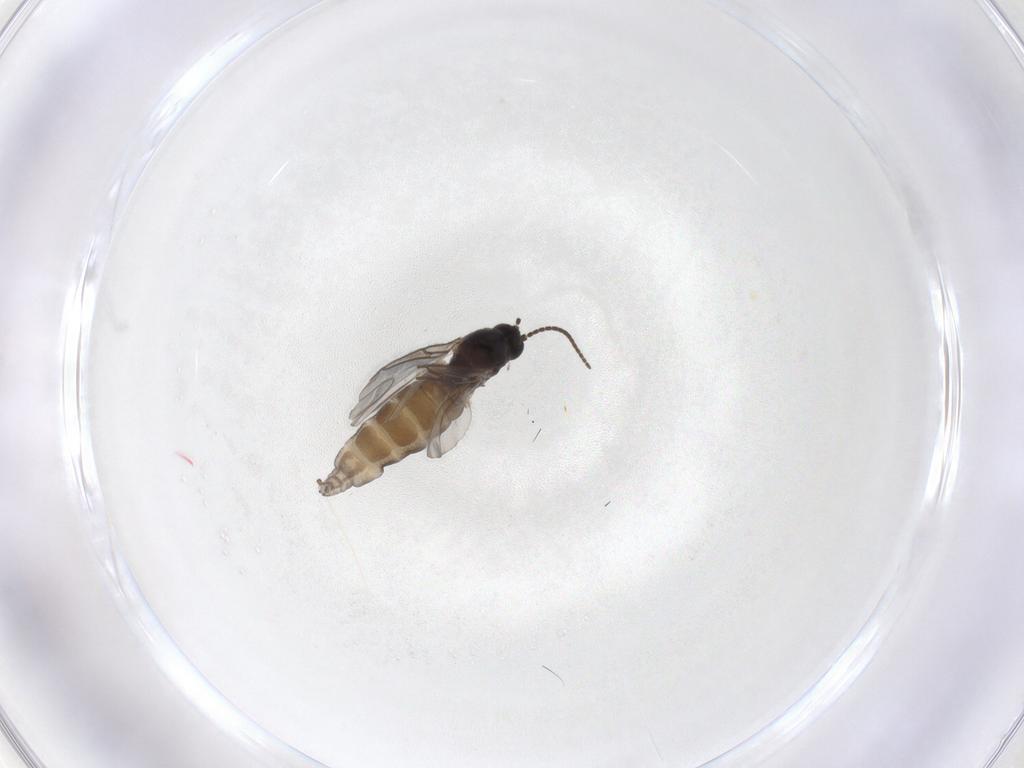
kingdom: Animalia
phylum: Arthropoda
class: Insecta
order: Diptera
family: Sciaridae
